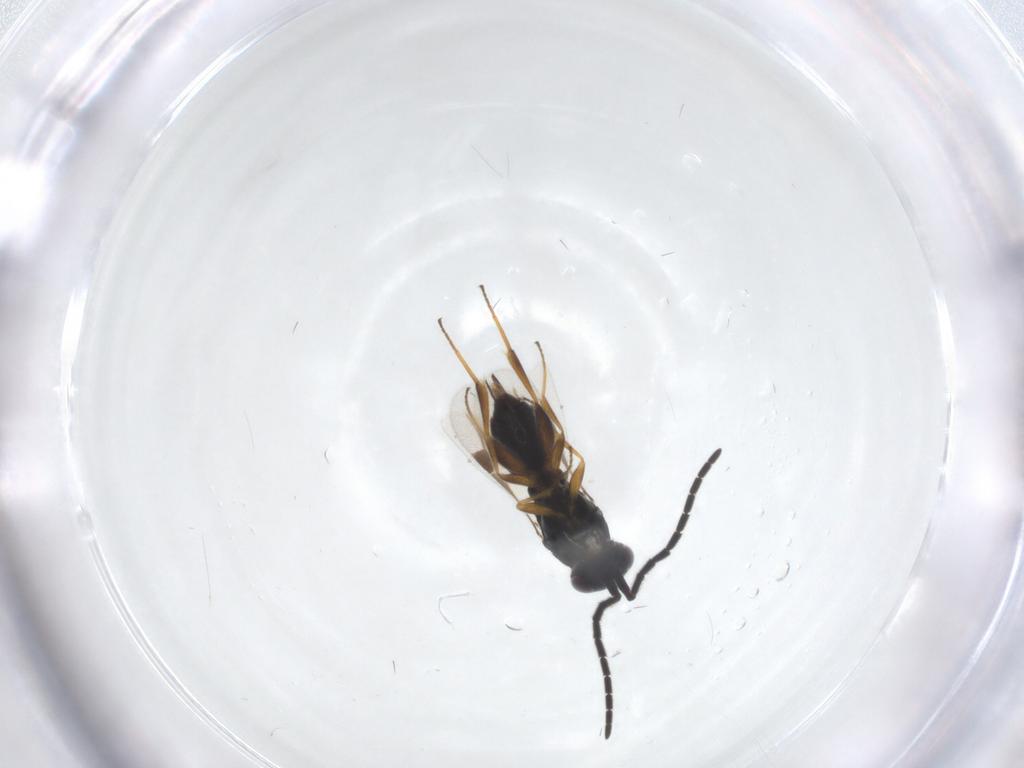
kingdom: Animalia
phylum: Arthropoda
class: Insecta
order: Hymenoptera
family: Megaspilidae
